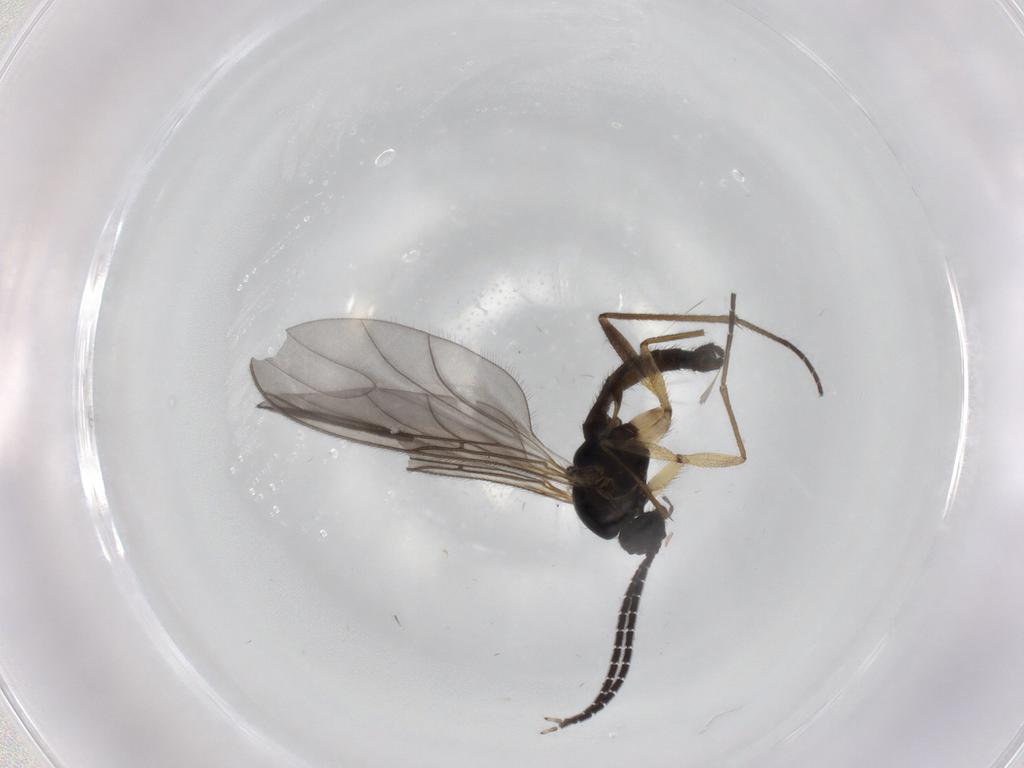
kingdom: Animalia
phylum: Arthropoda
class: Insecta
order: Diptera
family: Sciaridae
